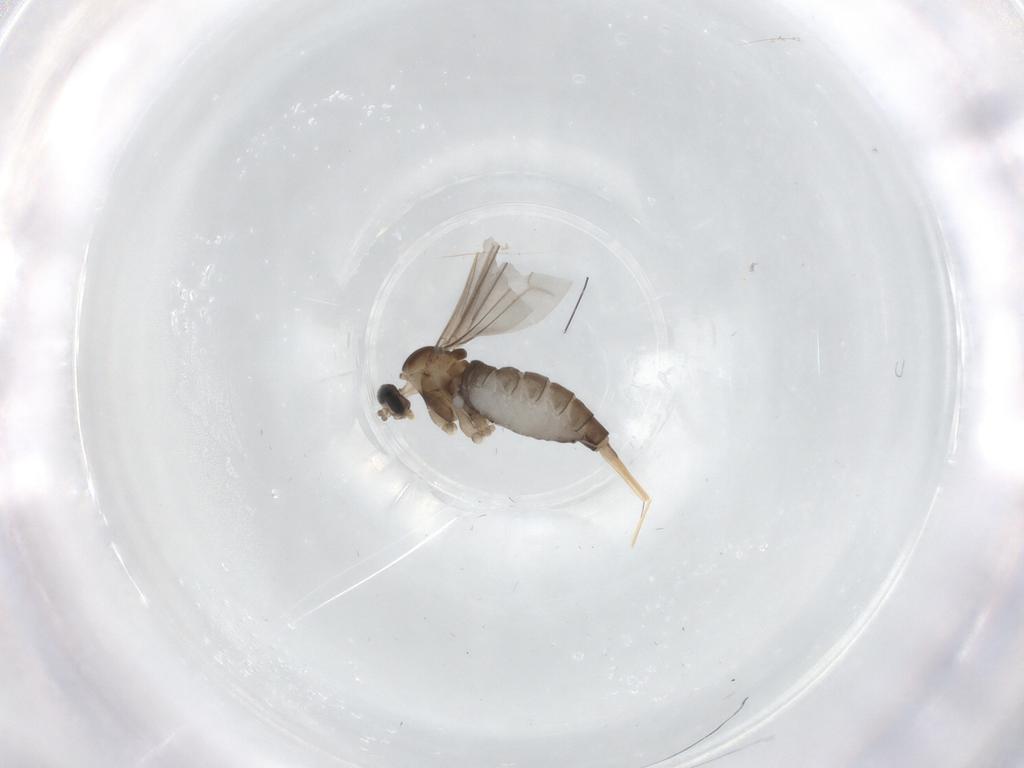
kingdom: Animalia
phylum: Arthropoda
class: Insecta
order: Diptera
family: Cecidomyiidae
